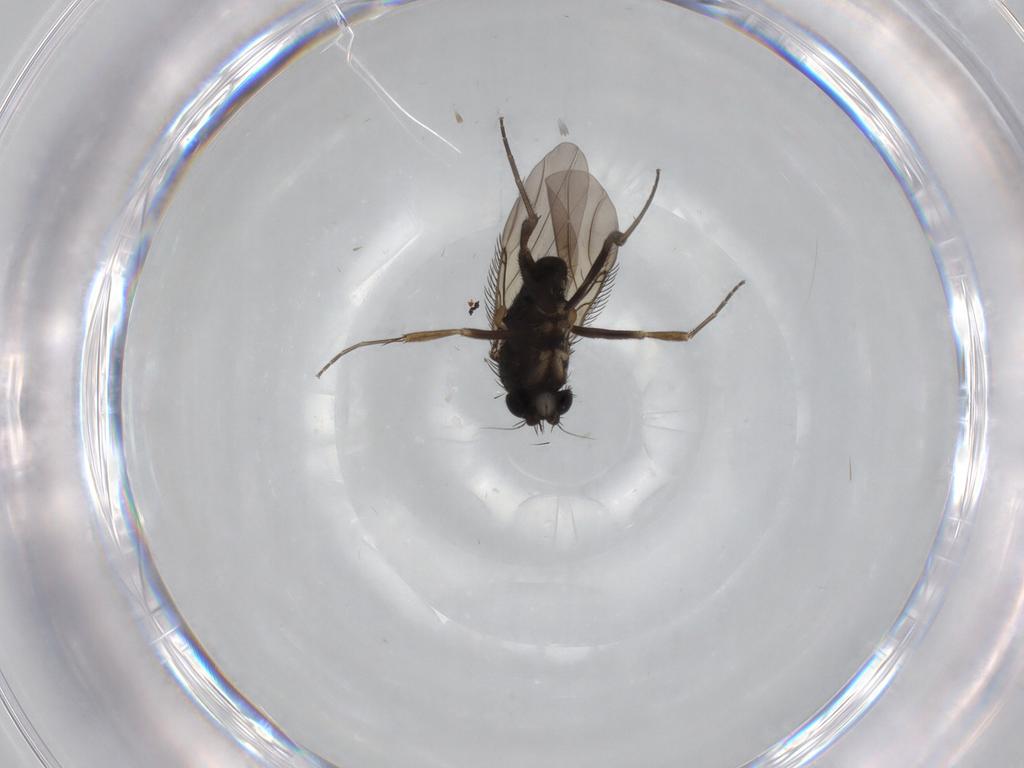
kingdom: Animalia
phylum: Arthropoda
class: Insecta
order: Diptera
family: Phoridae
